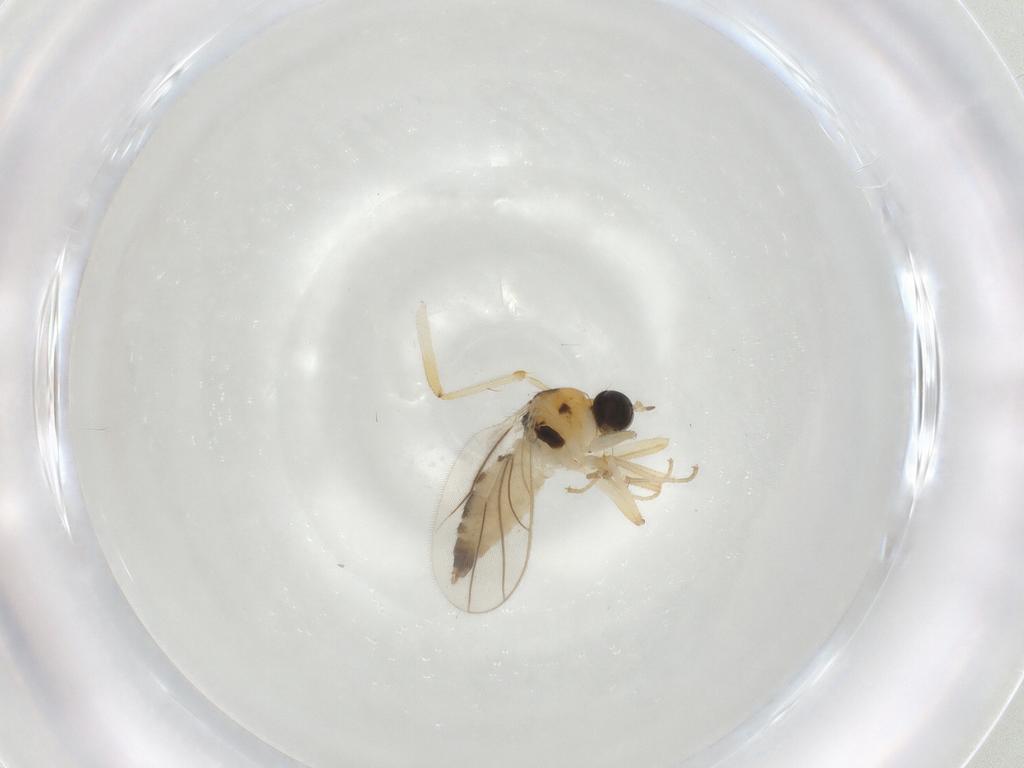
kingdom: Animalia
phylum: Arthropoda
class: Insecta
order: Diptera
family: Hybotidae
